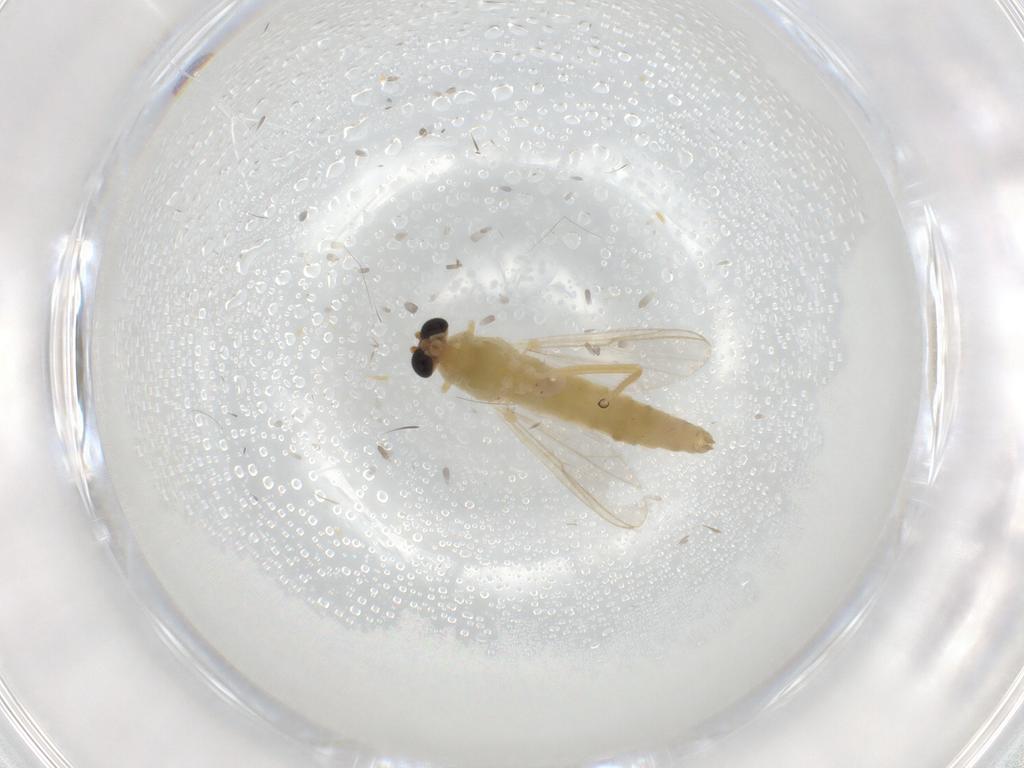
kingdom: Animalia
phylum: Arthropoda
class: Insecta
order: Diptera
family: Chironomidae
